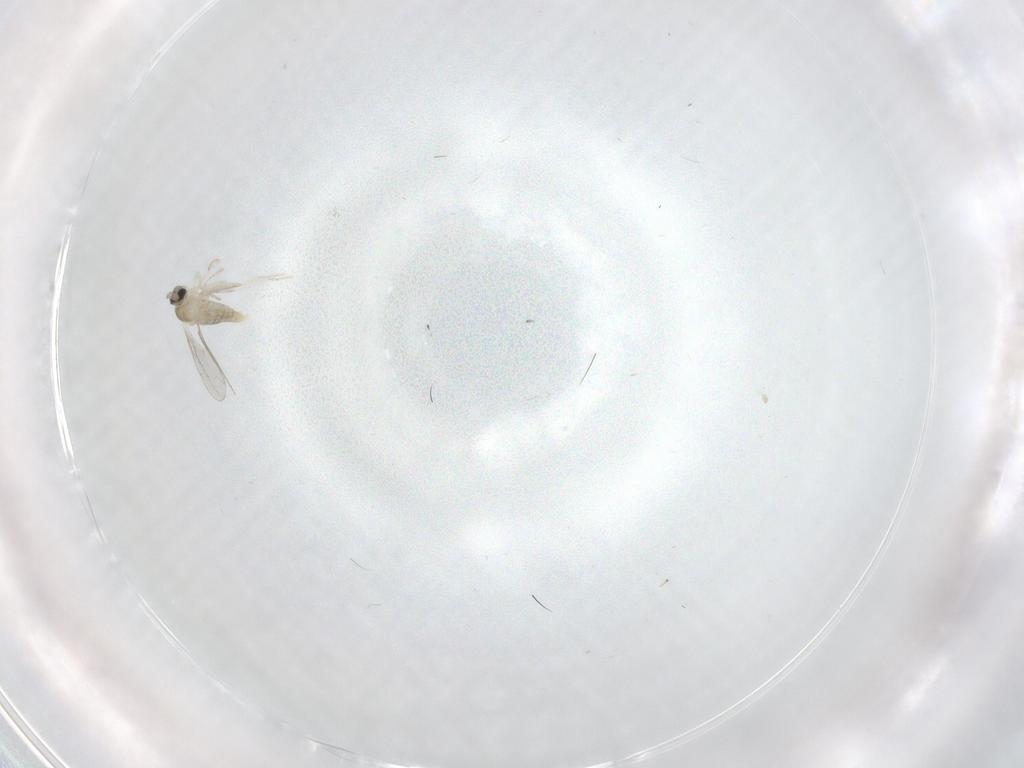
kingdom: Animalia
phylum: Arthropoda
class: Insecta
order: Diptera
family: Cecidomyiidae
